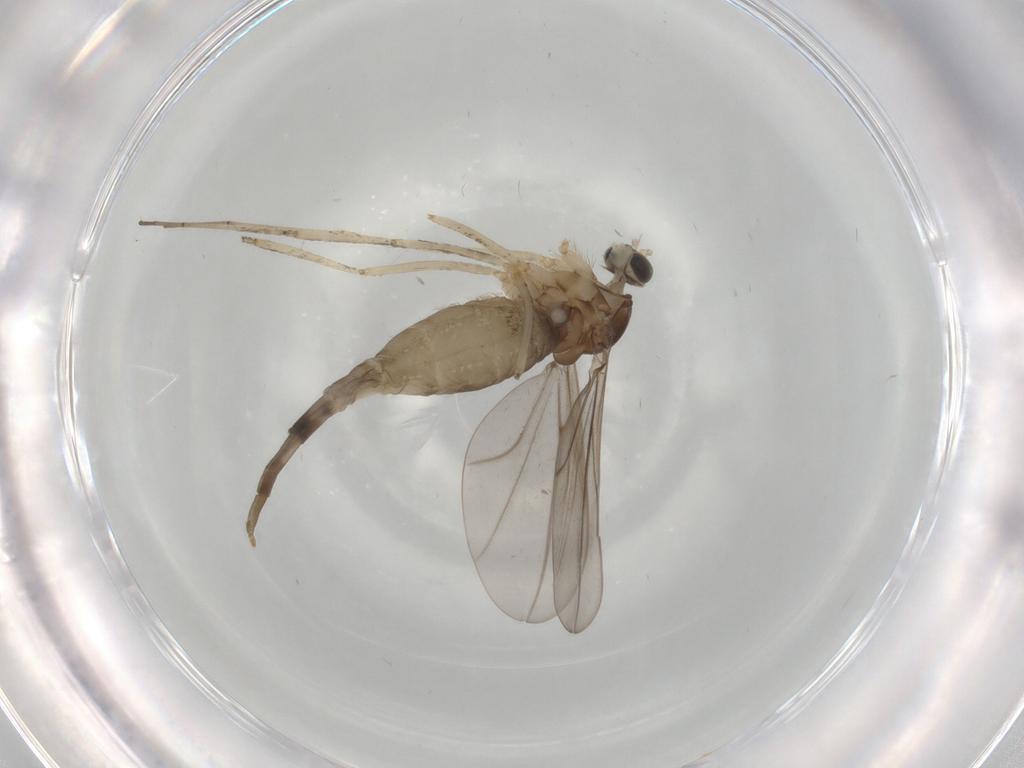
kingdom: Animalia
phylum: Arthropoda
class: Insecta
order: Diptera
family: Cecidomyiidae
